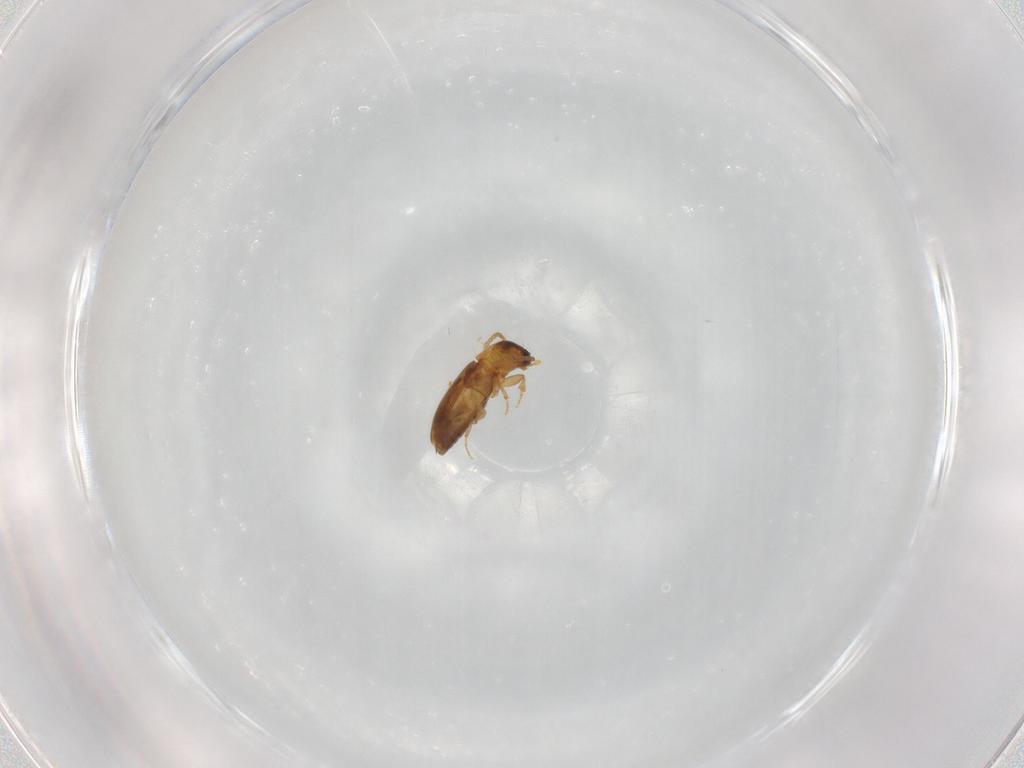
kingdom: Animalia
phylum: Arthropoda
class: Insecta
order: Coleoptera
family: Carabidae
